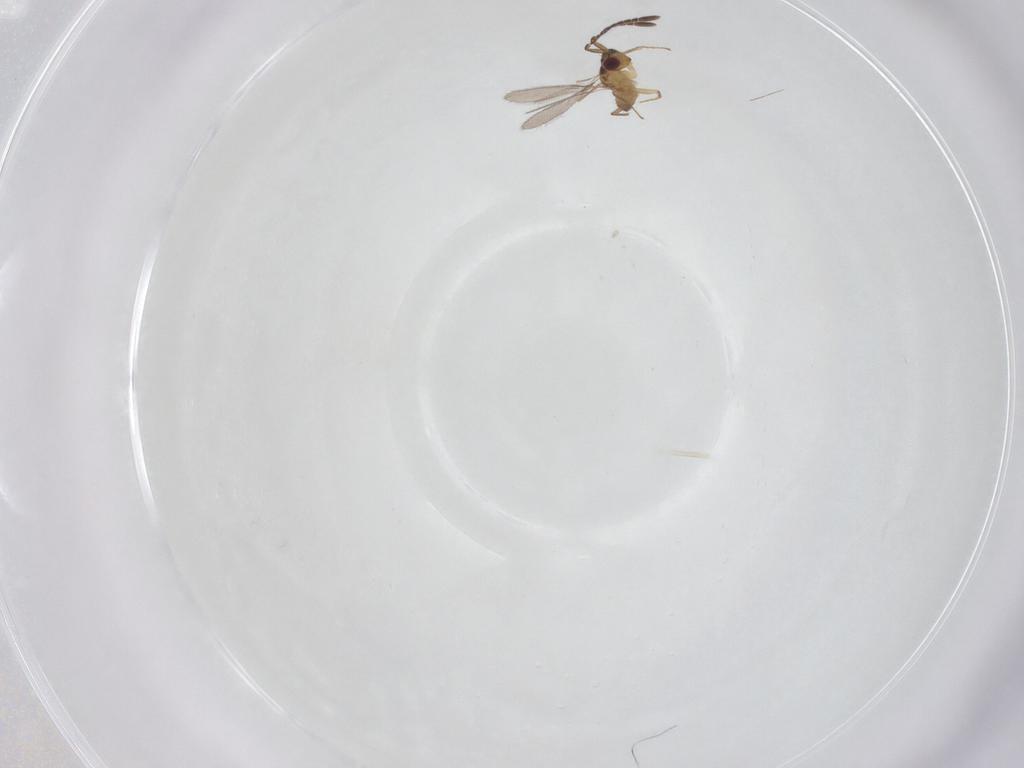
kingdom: Animalia
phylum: Arthropoda
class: Insecta
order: Hymenoptera
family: Mymaridae
